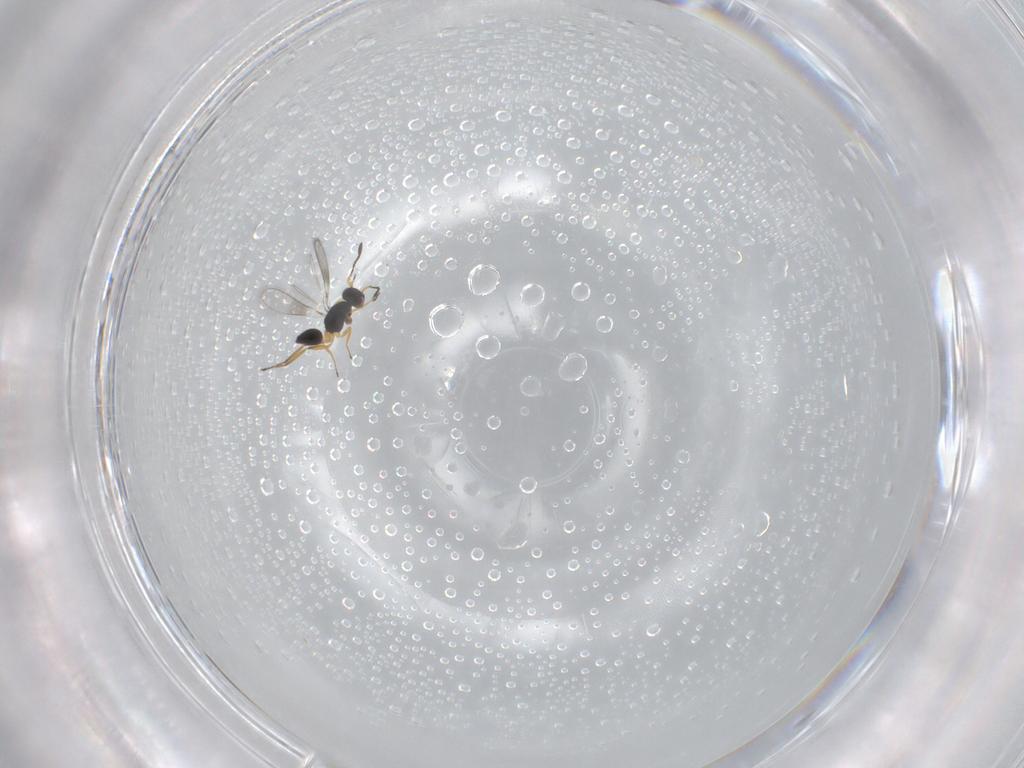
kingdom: Animalia
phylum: Arthropoda
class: Insecta
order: Hymenoptera
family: Mymaridae
